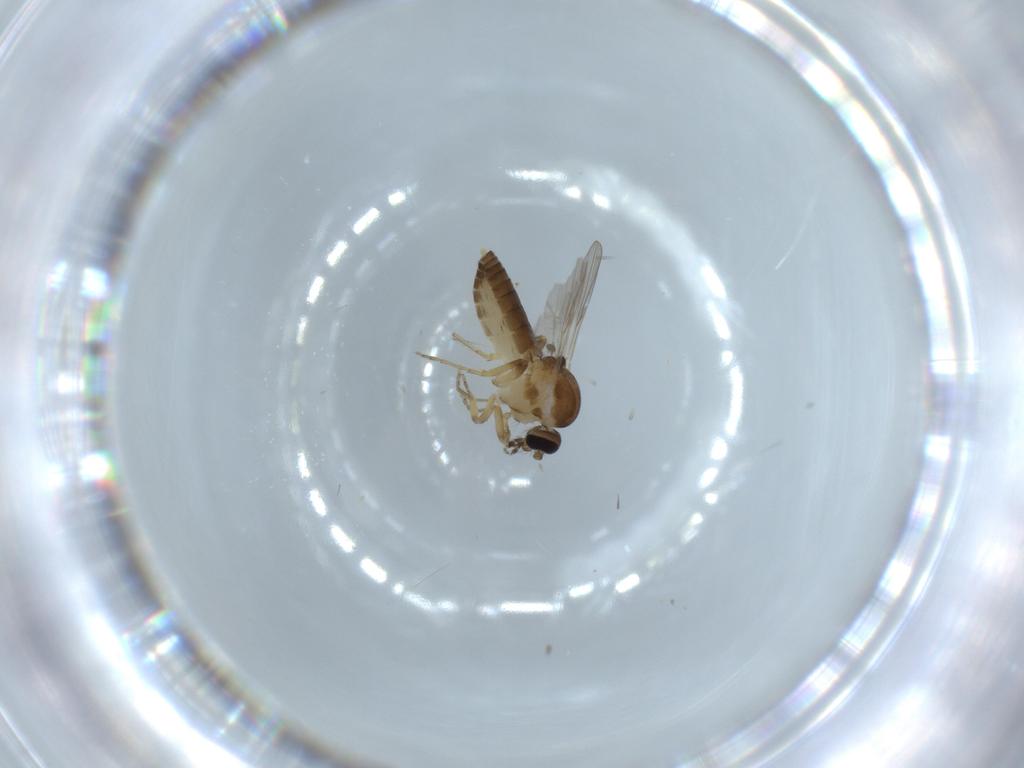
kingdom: Animalia
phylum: Arthropoda
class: Insecta
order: Diptera
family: Ceratopogonidae
